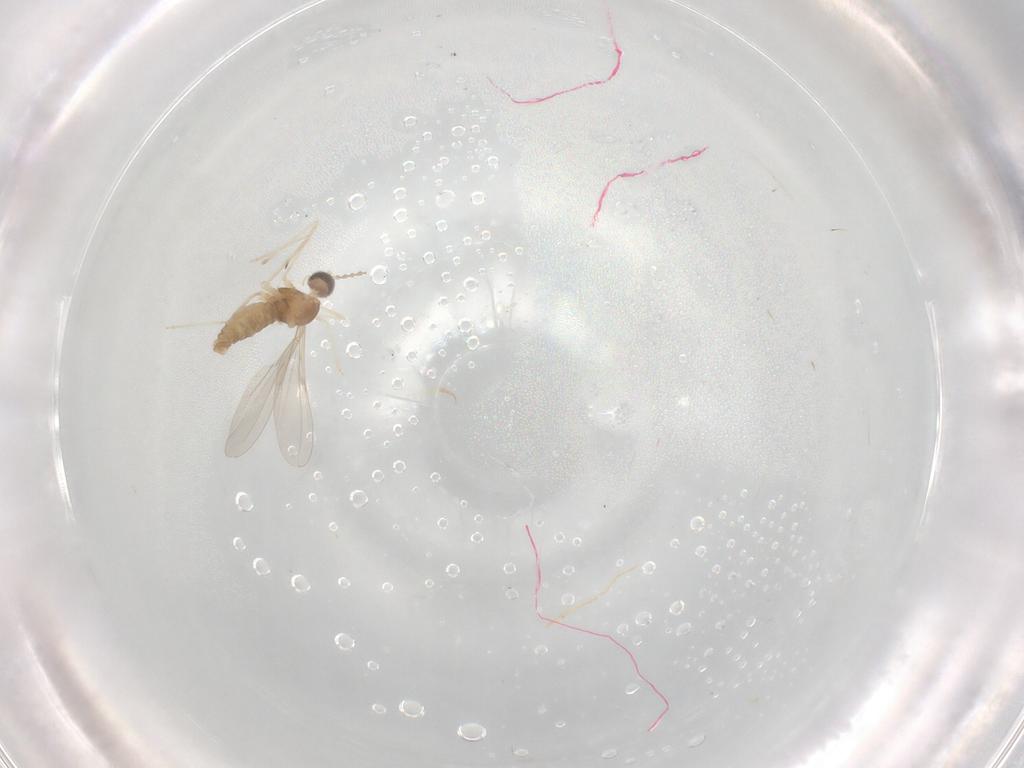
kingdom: Animalia
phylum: Arthropoda
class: Insecta
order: Diptera
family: Cecidomyiidae
